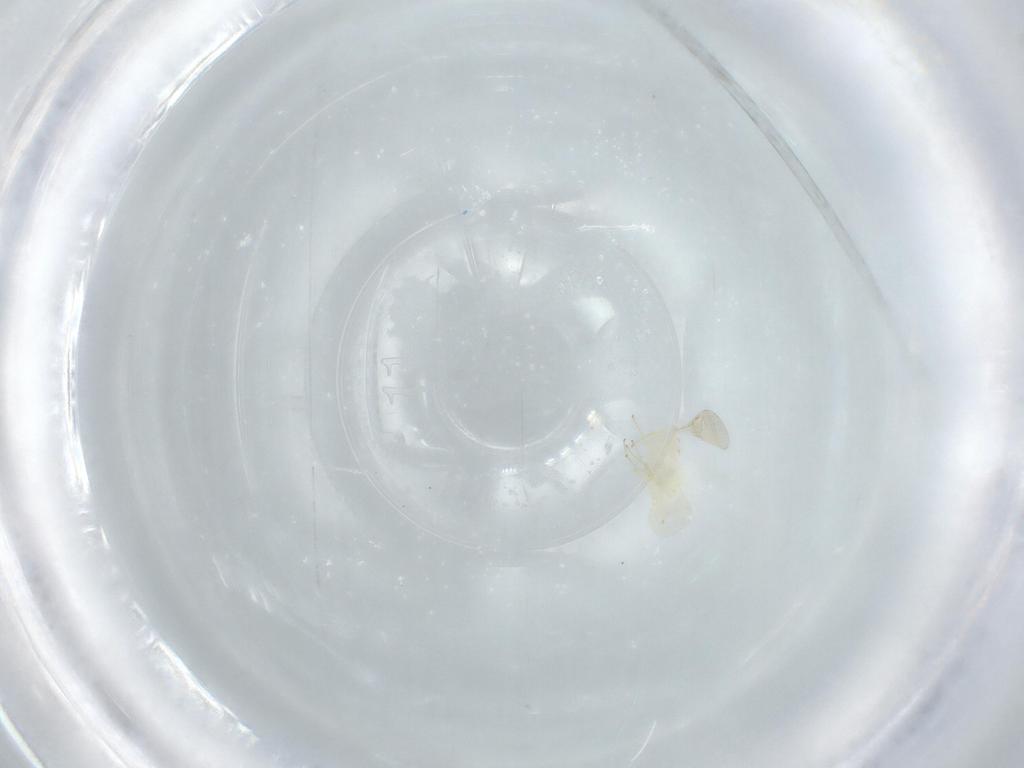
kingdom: Animalia
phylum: Arthropoda
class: Insecta
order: Hymenoptera
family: Aphelinidae
